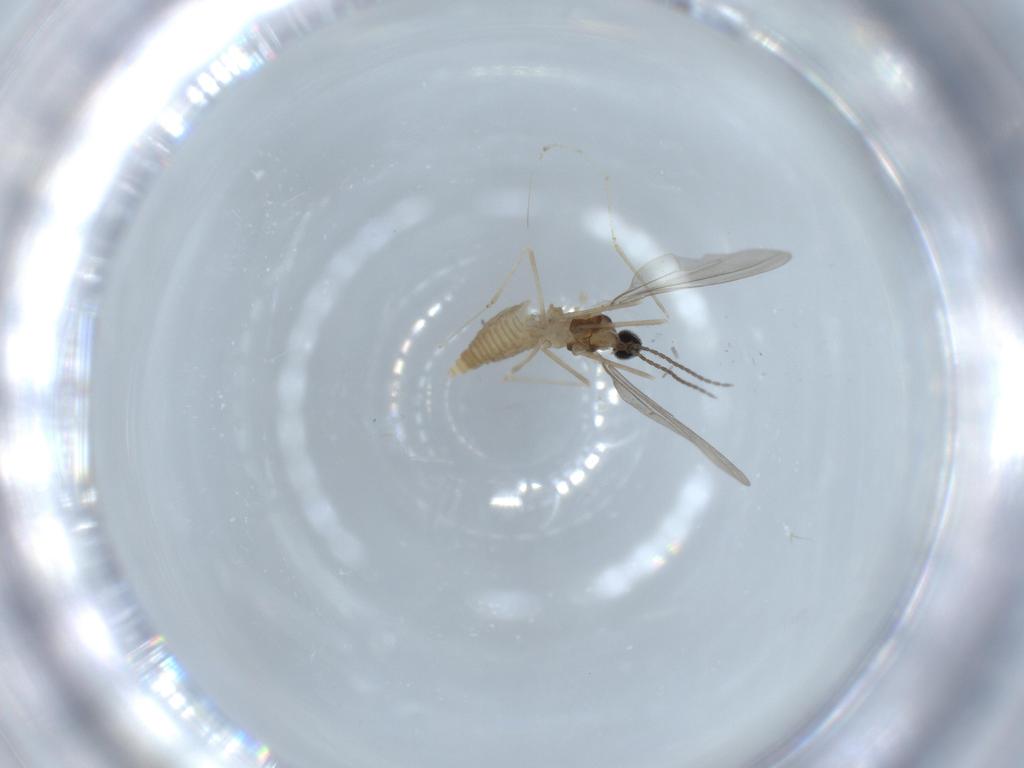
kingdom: Animalia
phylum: Arthropoda
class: Insecta
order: Diptera
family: Cecidomyiidae
